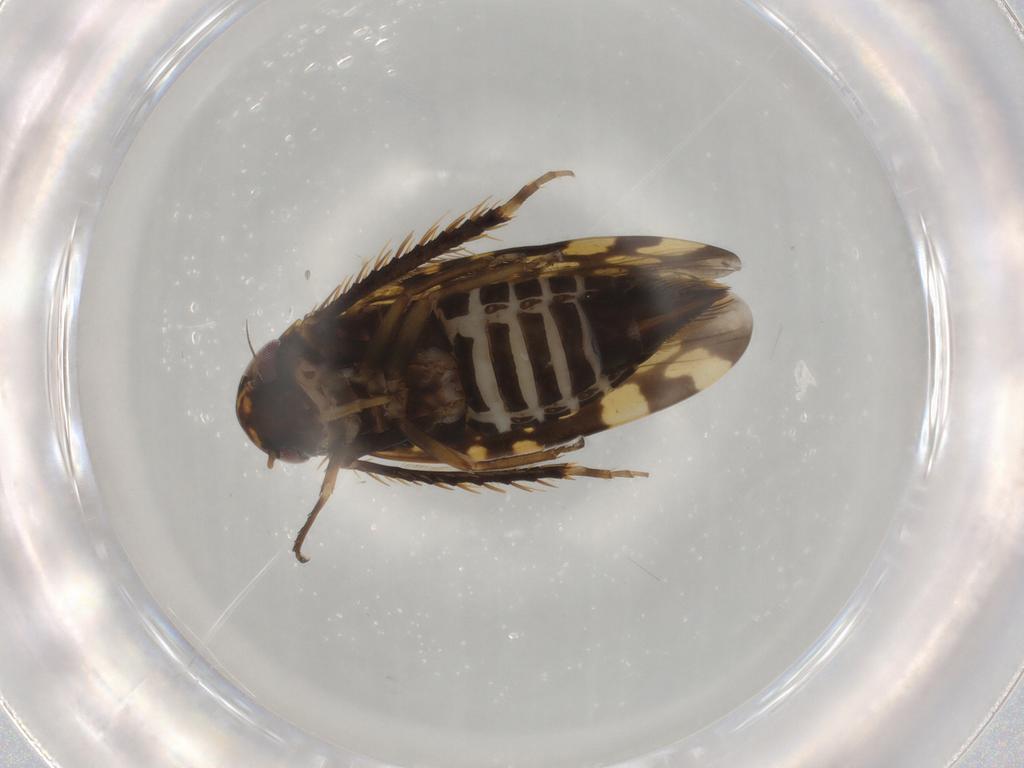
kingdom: Animalia
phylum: Arthropoda
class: Insecta
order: Hemiptera
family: Cicadellidae
